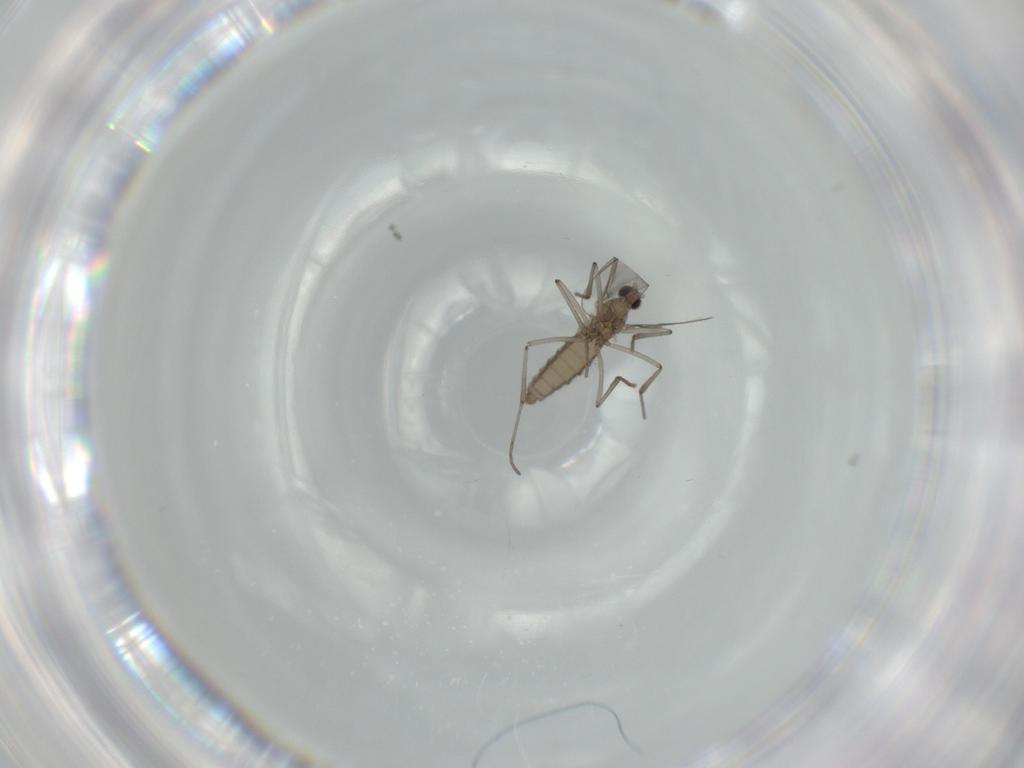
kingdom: Animalia
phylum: Arthropoda
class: Insecta
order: Diptera
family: Cecidomyiidae
